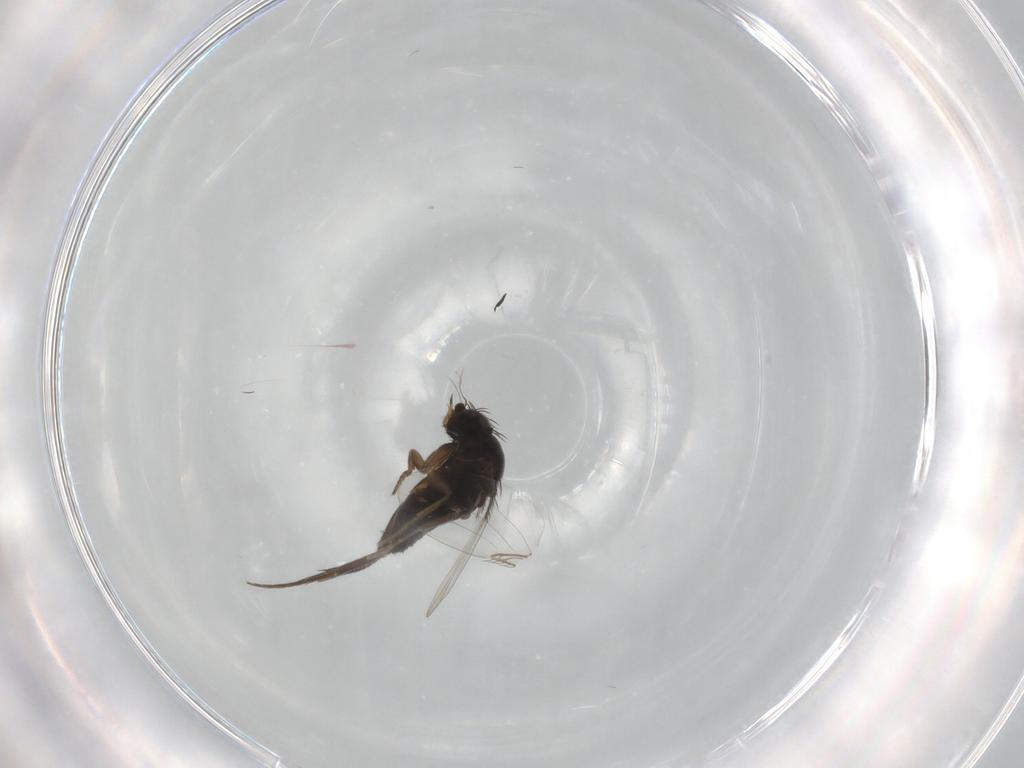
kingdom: Animalia
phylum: Arthropoda
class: Insecta
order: Diptera
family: Phoridae
